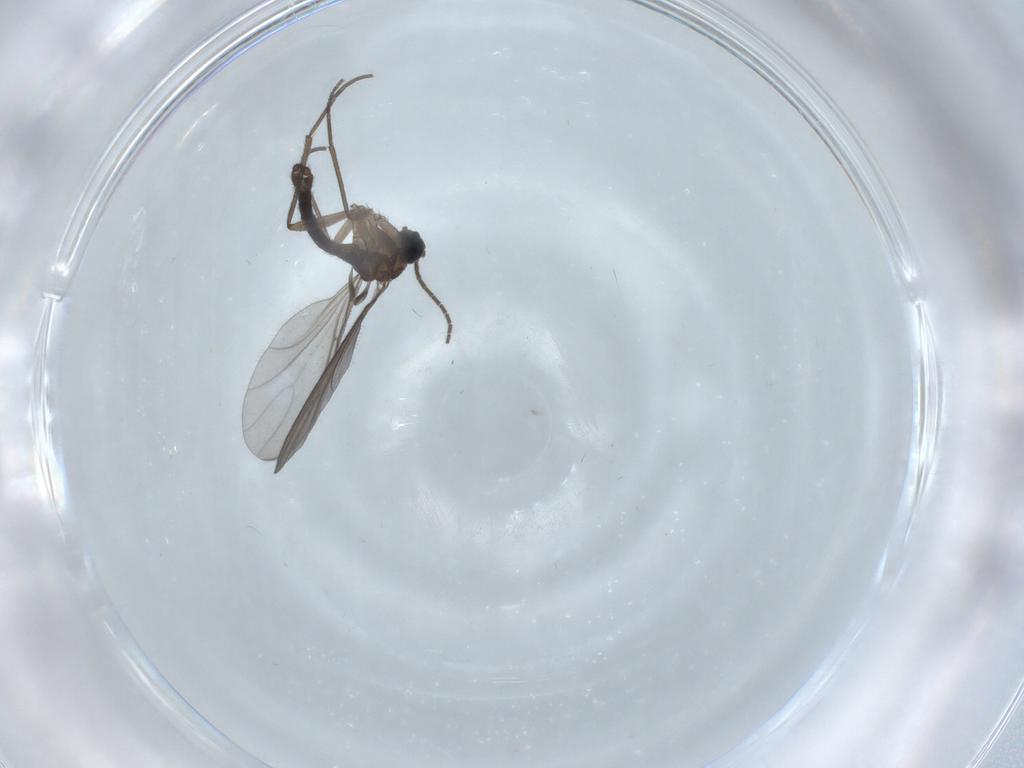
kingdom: Animalia
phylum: Arthropoda
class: Insecta
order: Diptera
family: Sciaridae
